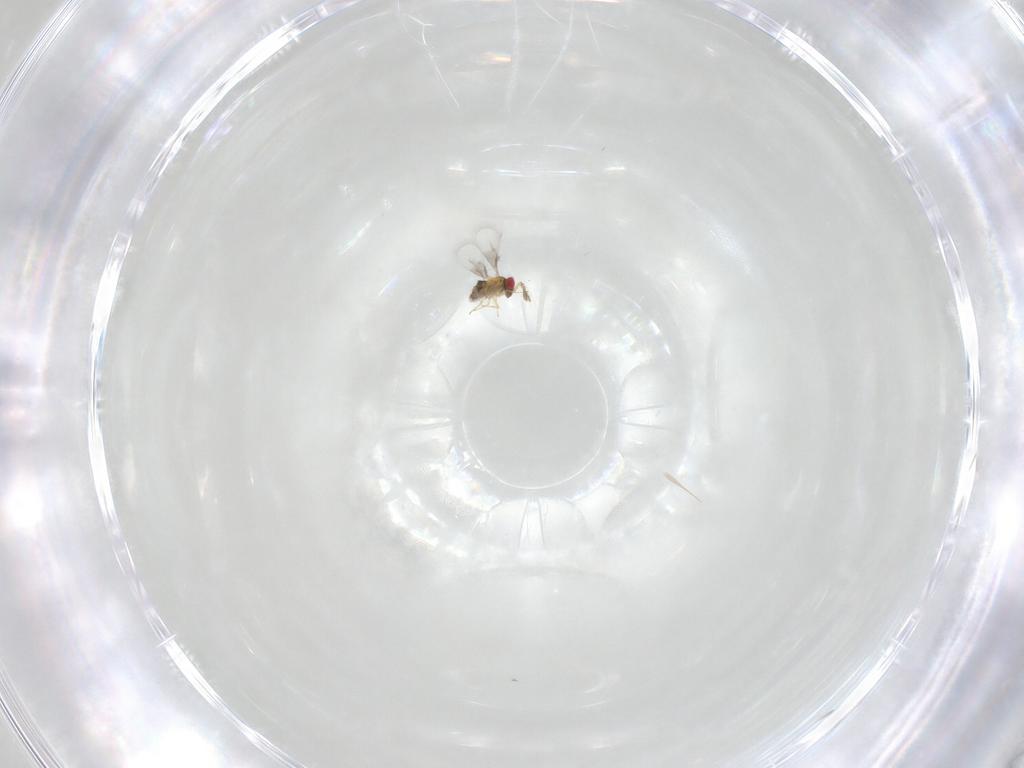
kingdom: Animalia
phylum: Arthropoda
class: Insecta
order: Hymenoptera
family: Trichogrammatidae
